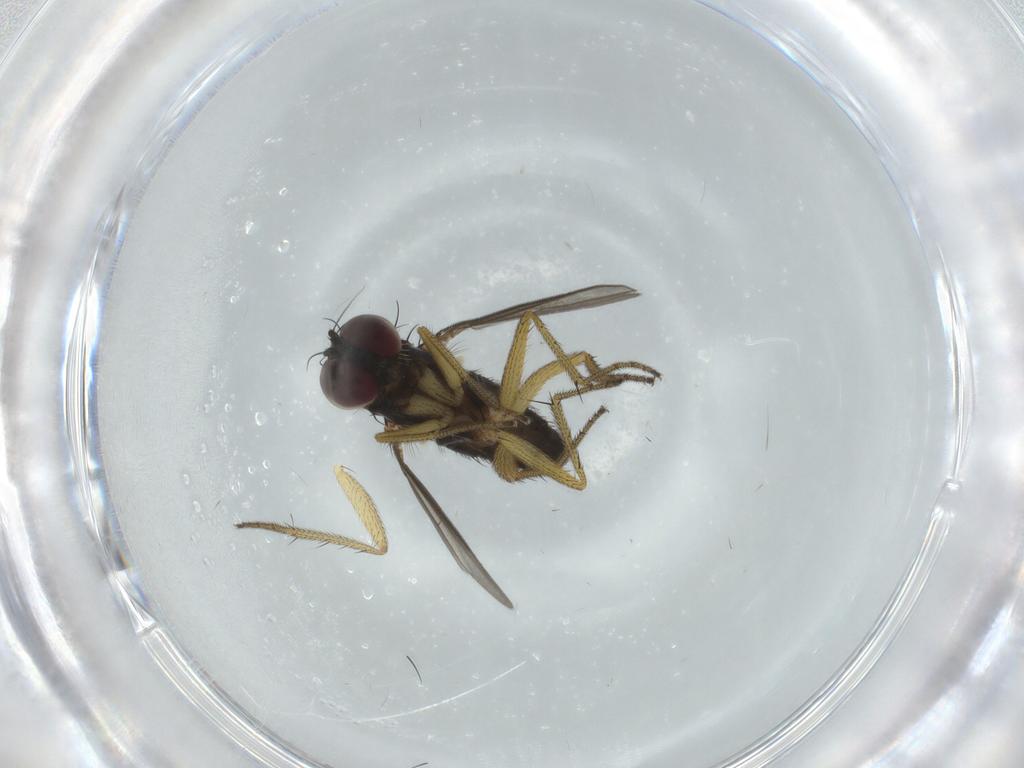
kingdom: Animalia
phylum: Arthropoda
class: Insecta
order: Diptera
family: Dolichopodidae
